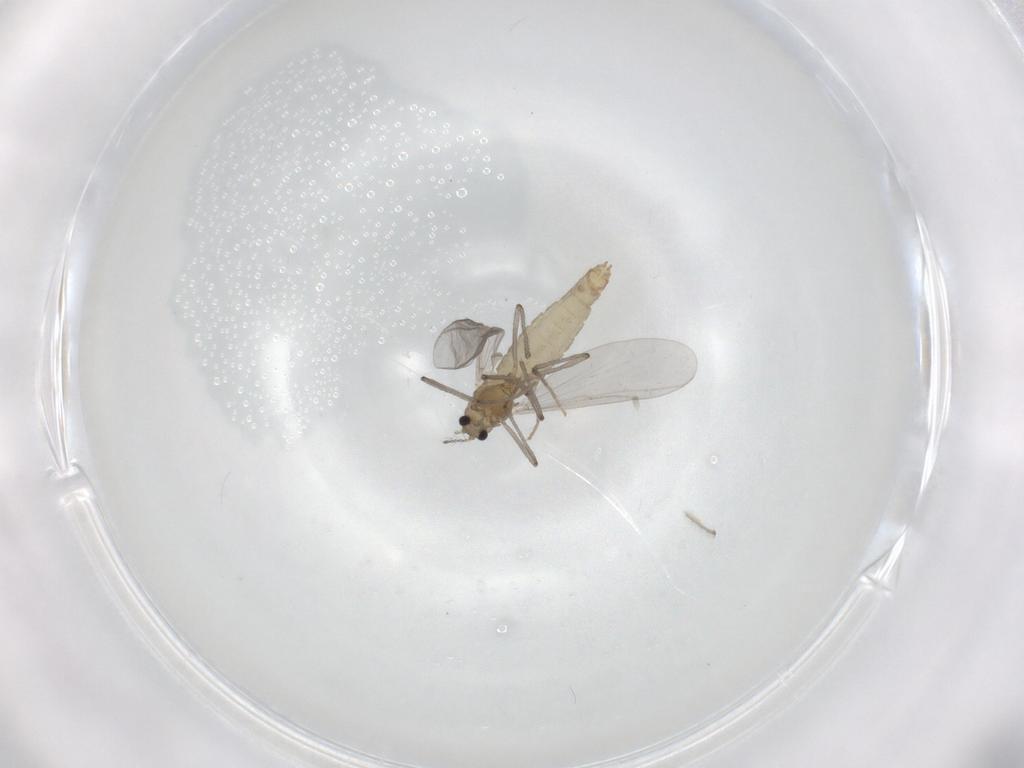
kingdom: Animalia
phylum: Arthropoda
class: Insecta
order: Diptera
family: Chironomidae
